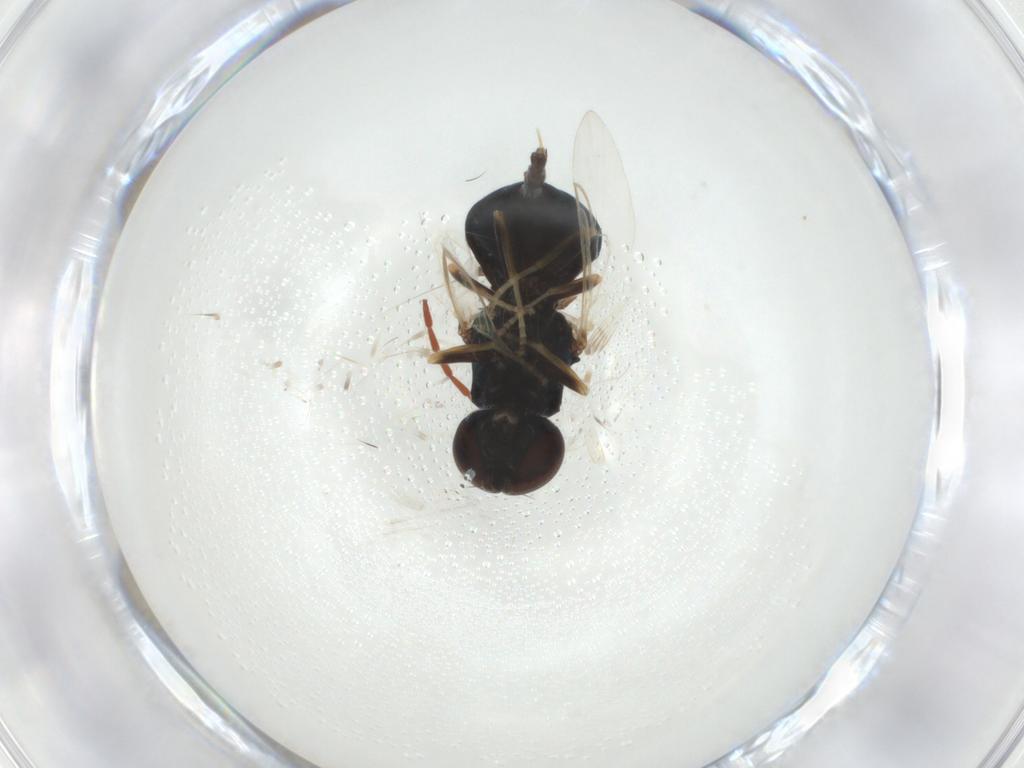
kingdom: Animalia
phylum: Arthropoda
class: Insecta
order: Diptera
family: Stratiomyidae
